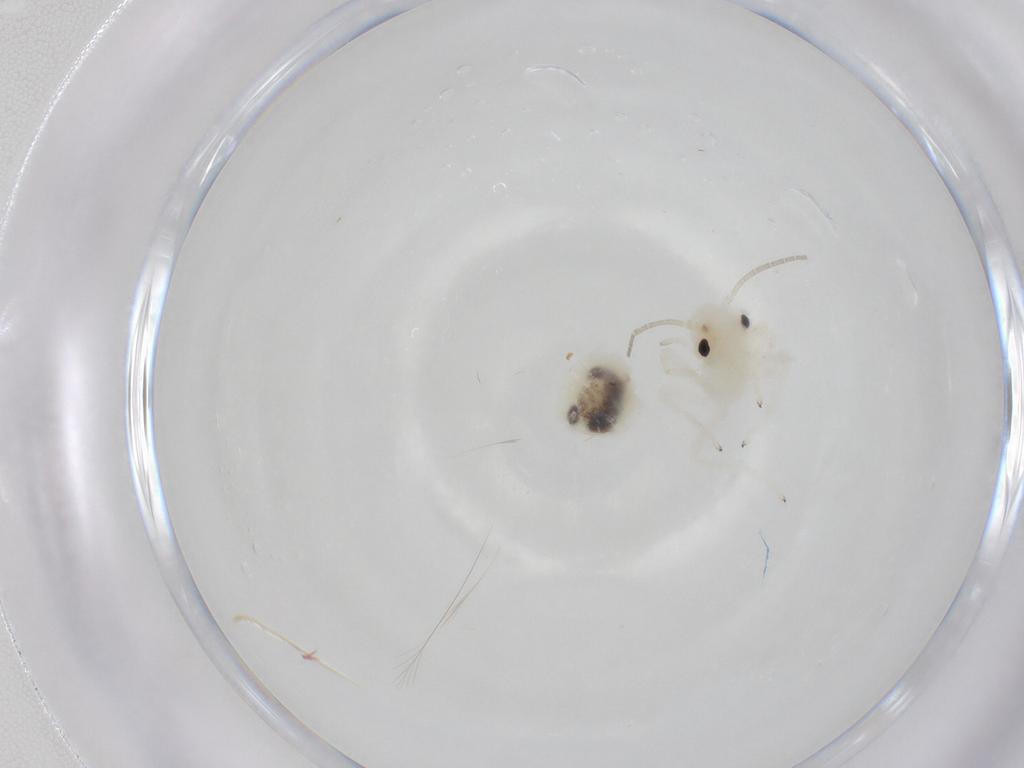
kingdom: Animalia
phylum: Arthropoda
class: Insecta
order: Psocodea
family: Caeciliusidae
